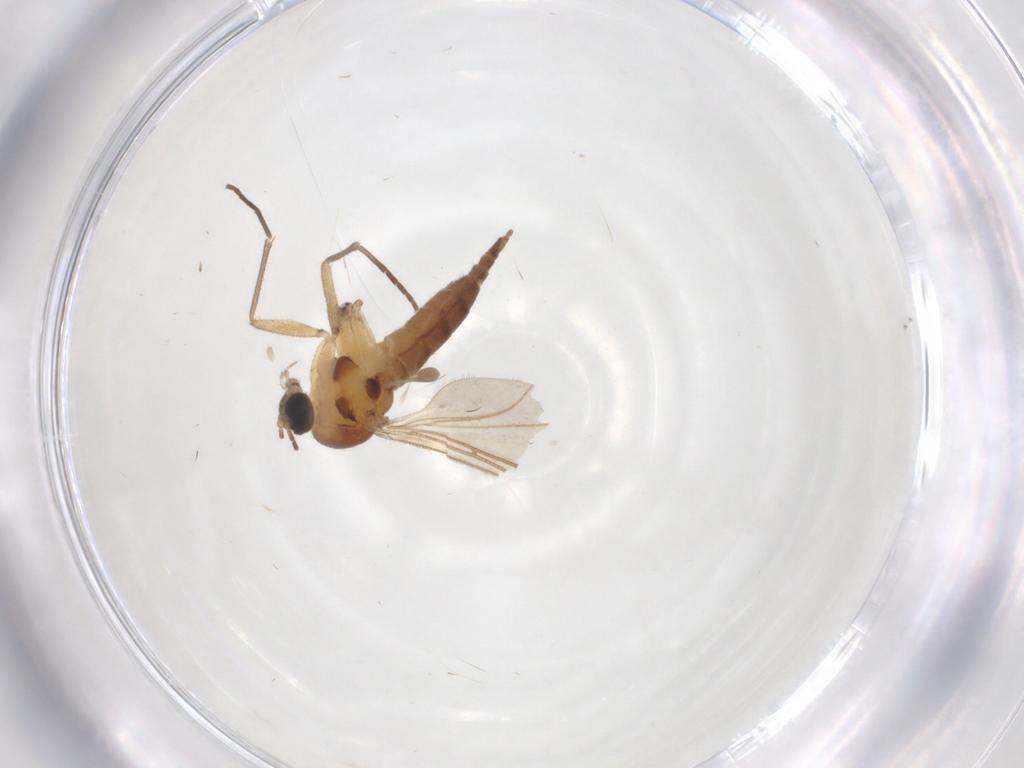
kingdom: Animalia
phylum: Arthropoda
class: Insecta
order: Diptera
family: Sciaridae
